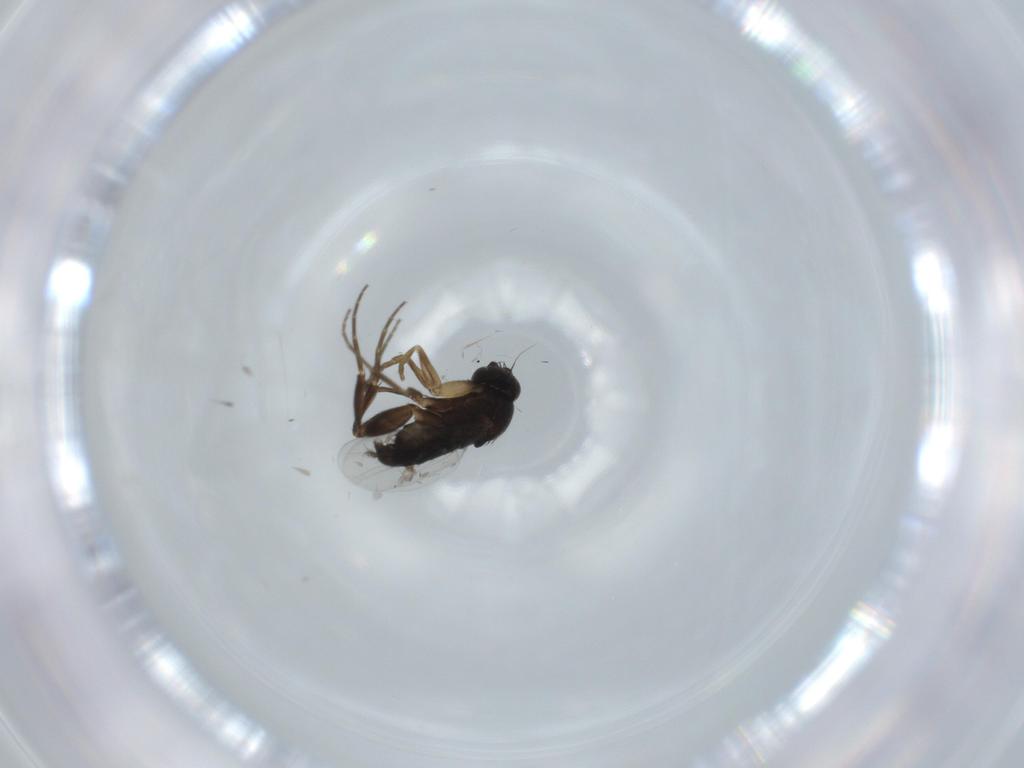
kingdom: Animalia
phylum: Arthropoda
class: Insecta
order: Diptera
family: Phoridae
